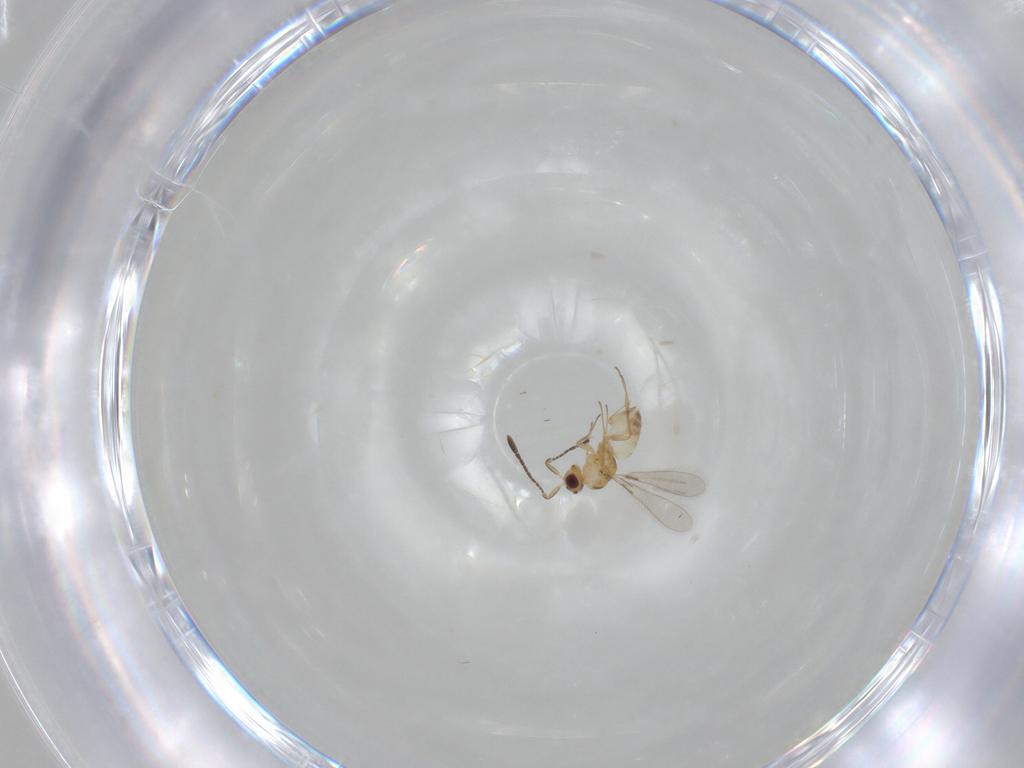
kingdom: Animalia
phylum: Arthropoda
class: Insecta
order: Hymenoptera
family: Mymaridae
